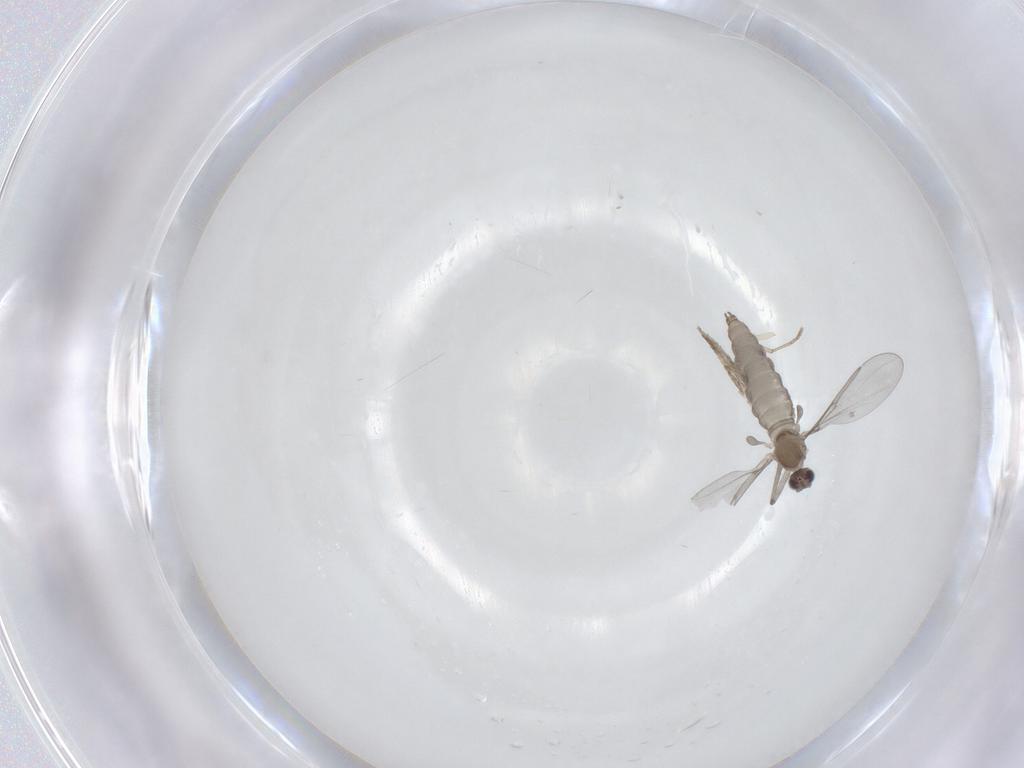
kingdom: Animalia
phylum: Arthropoda
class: Insecta
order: Diptera
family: Cecidomyiidae
